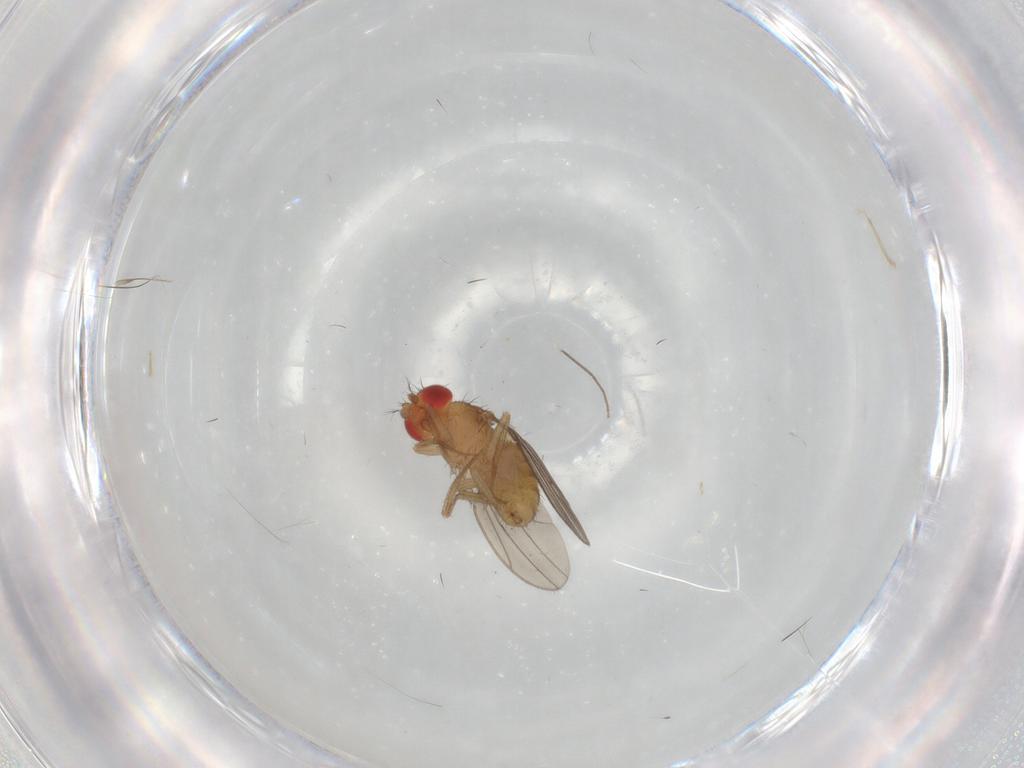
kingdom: Animalia
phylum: Arthropoda
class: Insecta
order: Diptera
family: Drosophilidae
